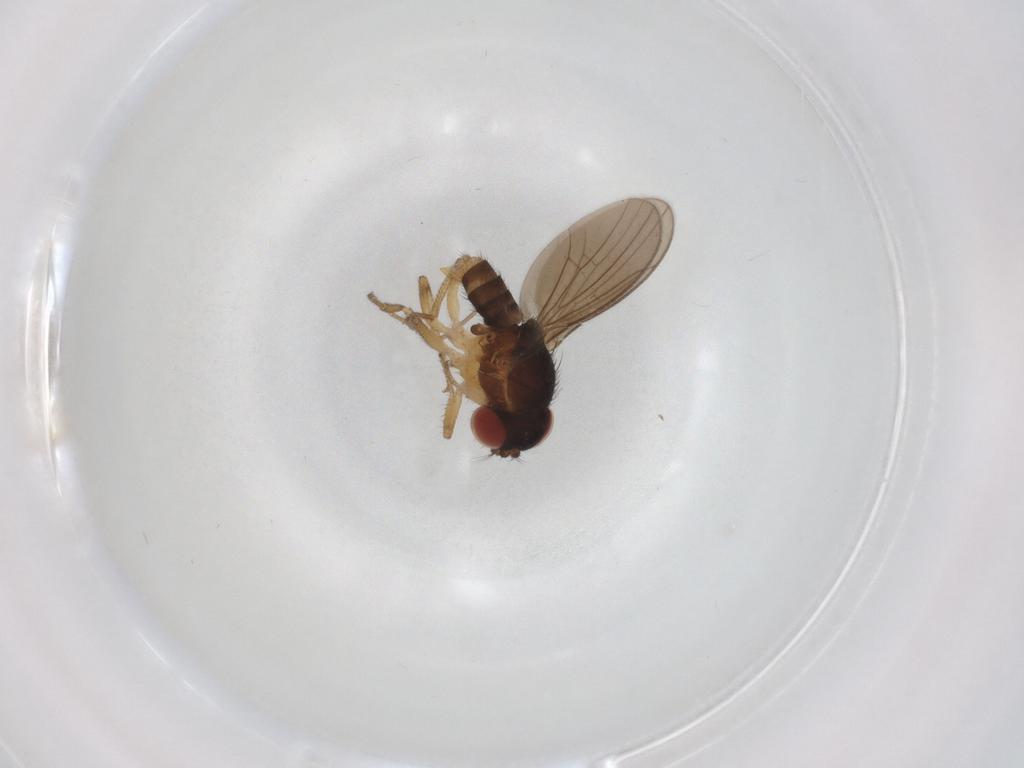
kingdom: Animalia
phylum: Arthropoda
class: Insecta
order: Diptera
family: Drosophilidae
